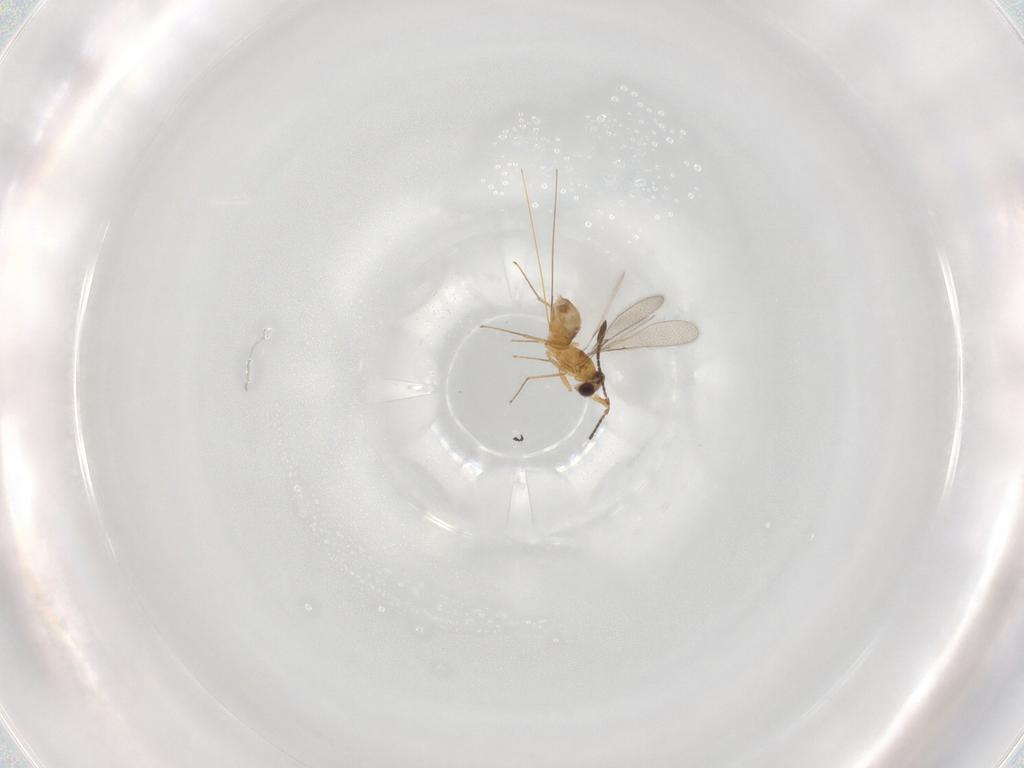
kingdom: Animalia
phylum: Arthropoda
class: Insecta
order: Hymenoptera
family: Mymaridae
